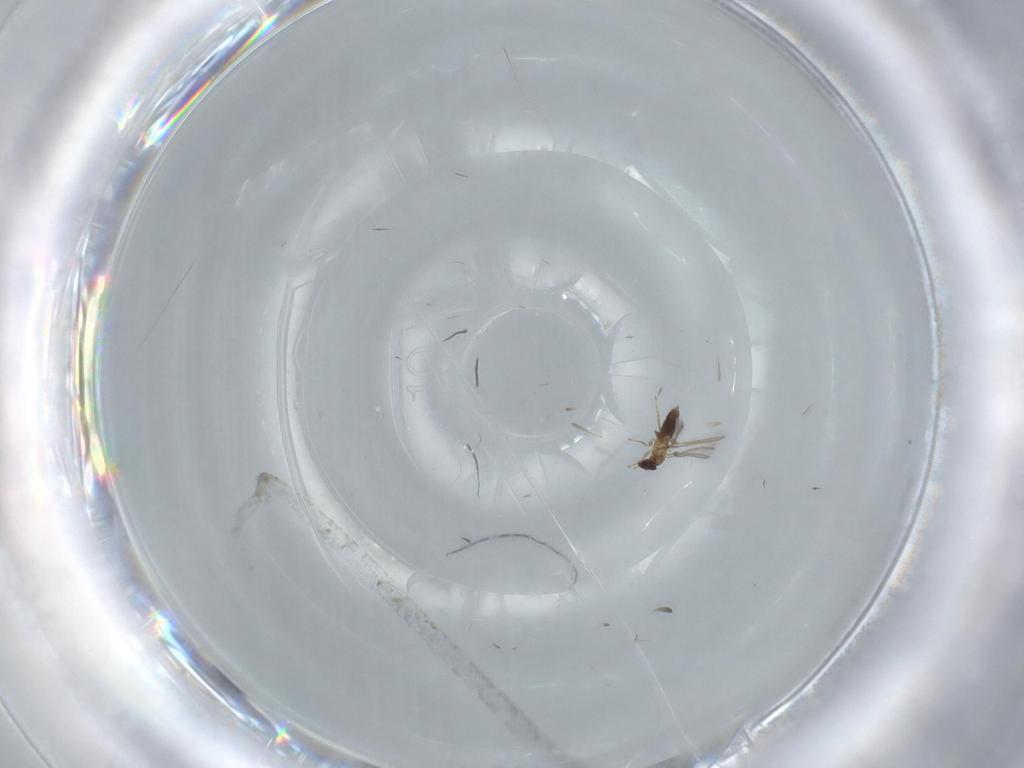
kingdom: Animalia
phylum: Arthropoda
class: Insecta
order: Hymenoptera
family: Mymaridae
